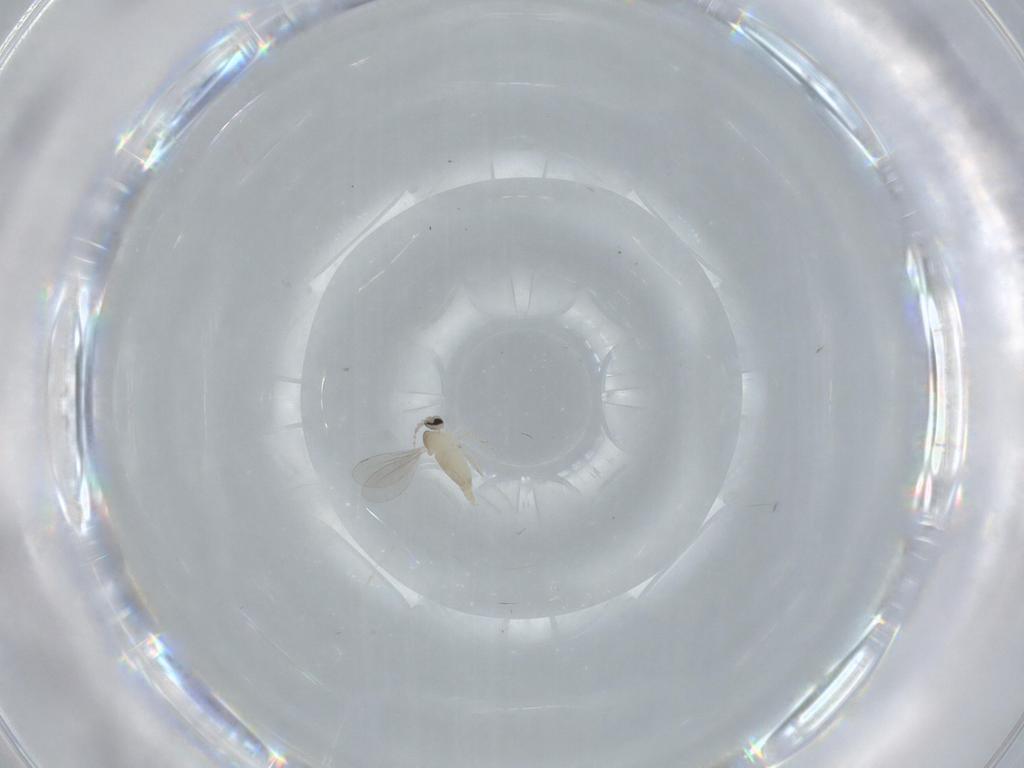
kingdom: Animalia
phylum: Arthropoda
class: Insecta
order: Diptera
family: Cecidomyiidae
